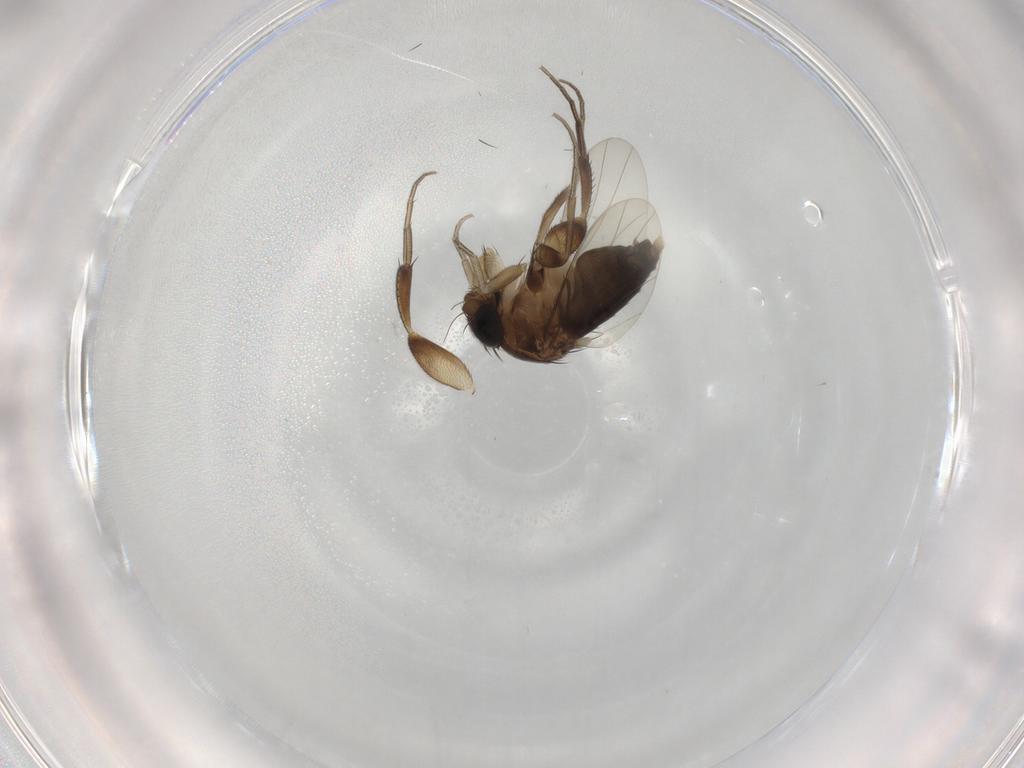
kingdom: Animalia
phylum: Arthropoda
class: Insecta
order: Diptera
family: Phoridae
